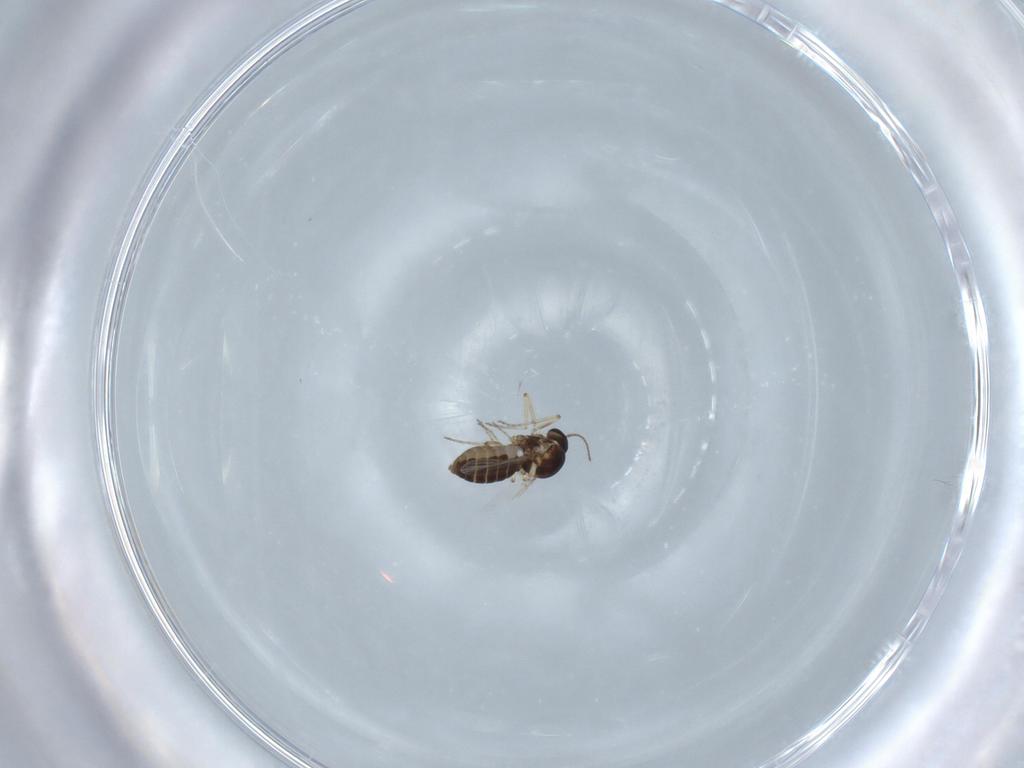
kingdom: Animalia
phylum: Arthropoda
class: Insecta
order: Diptera
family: Ceratopogonidae
